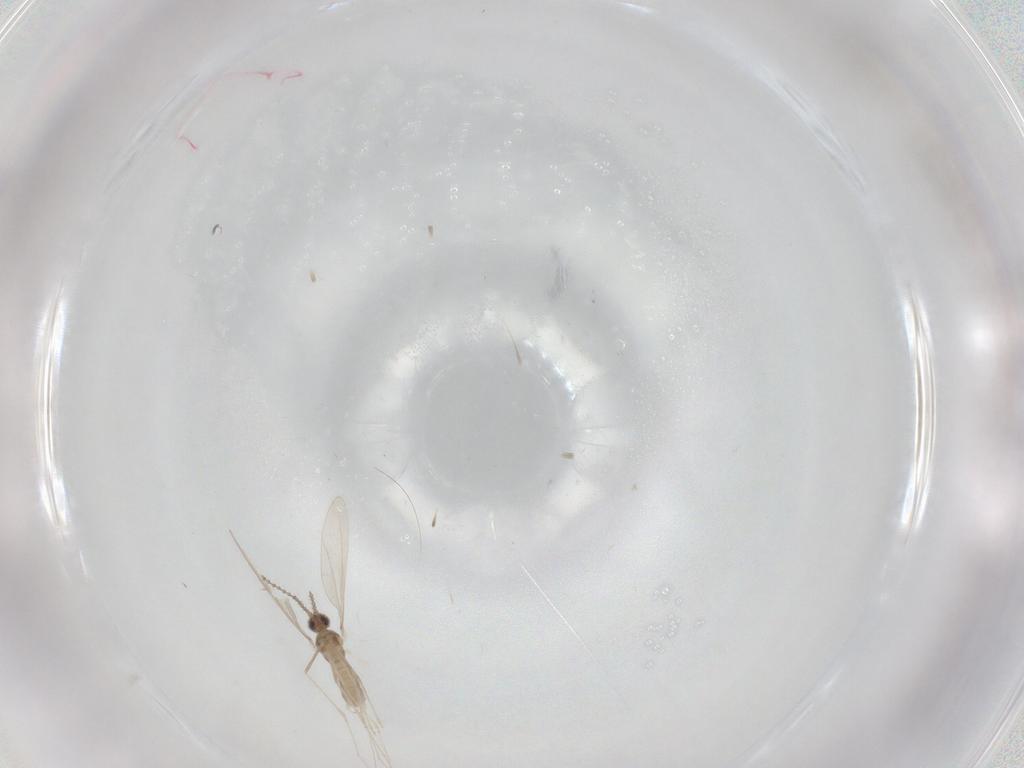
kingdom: Animalia
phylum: Arthropoda
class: Insecta
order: Diptera
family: Cecidomyiidae
